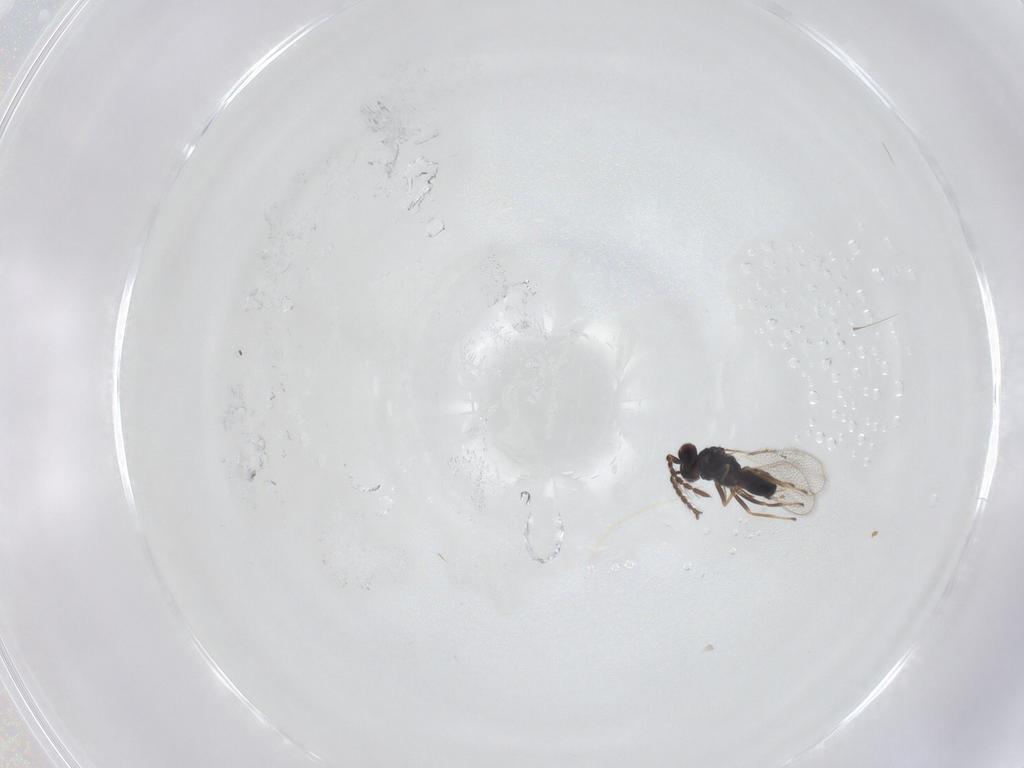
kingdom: Animalia
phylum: Arthropoda
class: Insecta
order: Hymenoptera
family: Eulophidae
